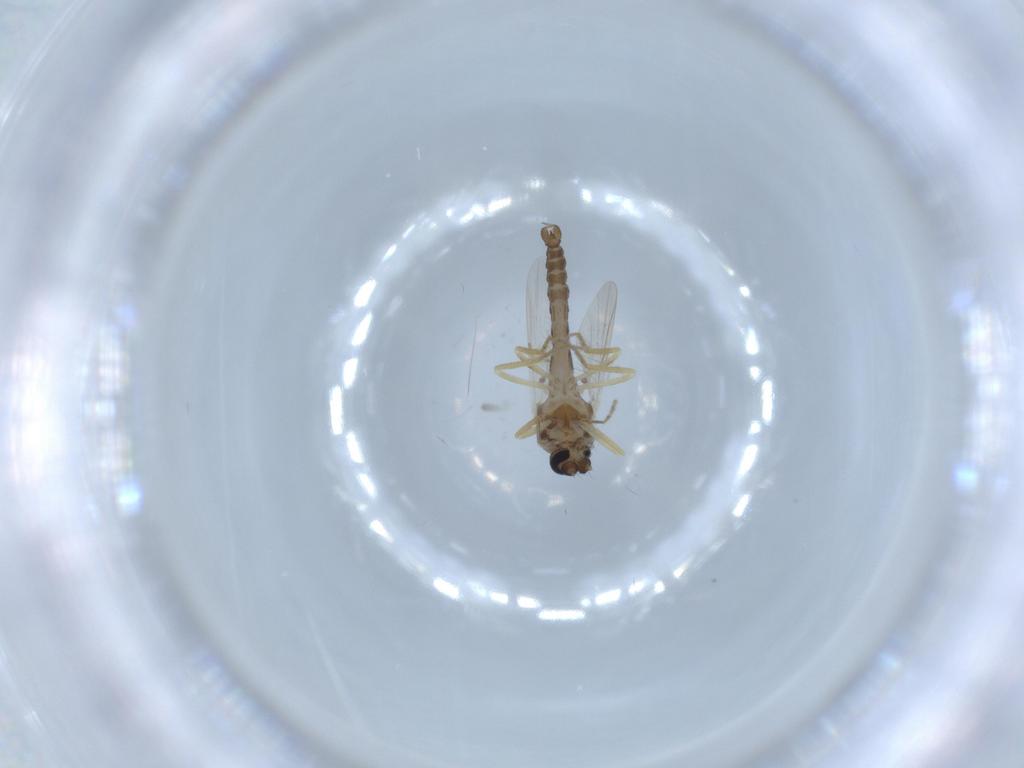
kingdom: Animalia
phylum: Arthropoda
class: Insecta
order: Diptera
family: Ceratopogonidae
